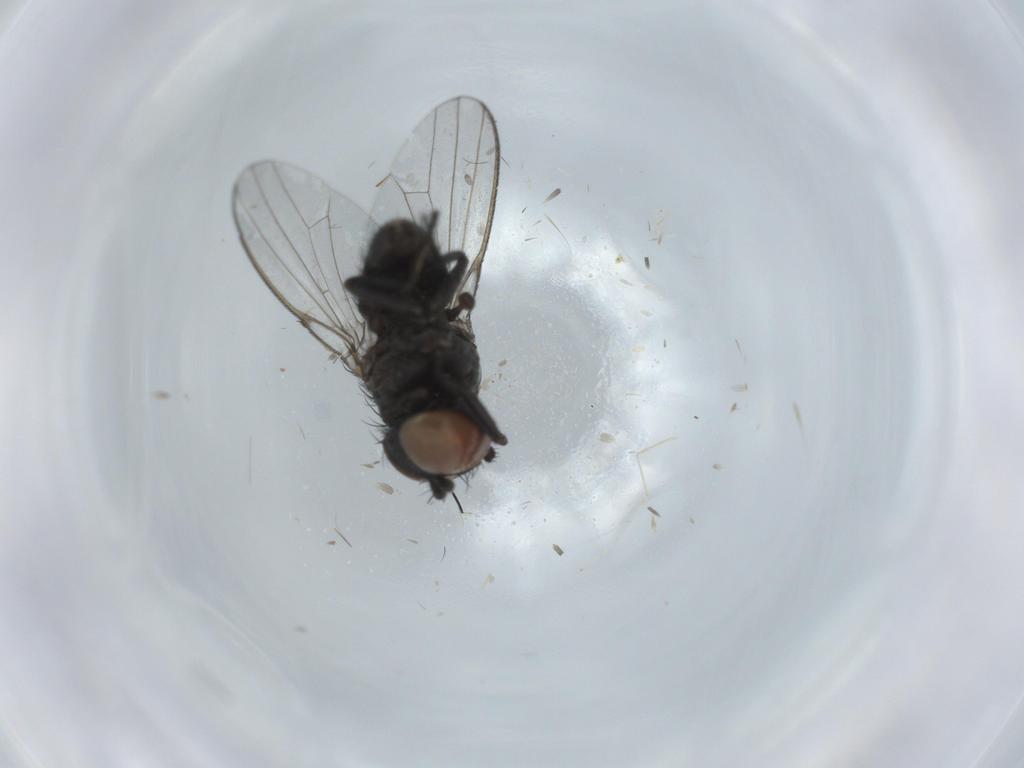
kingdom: Animalia
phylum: Arthropoda
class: Insecta
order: Diptera
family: Milichiidae
